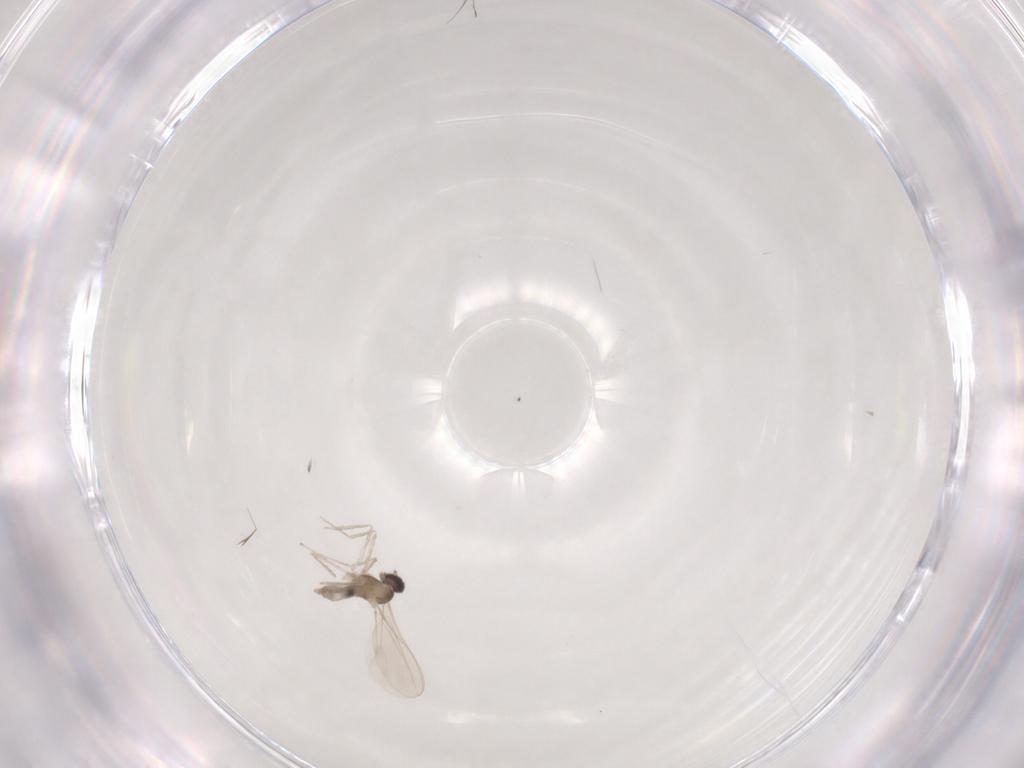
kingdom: Animalia
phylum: Arthropoda
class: Insecta
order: Diptera
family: Cecidomyiidae
